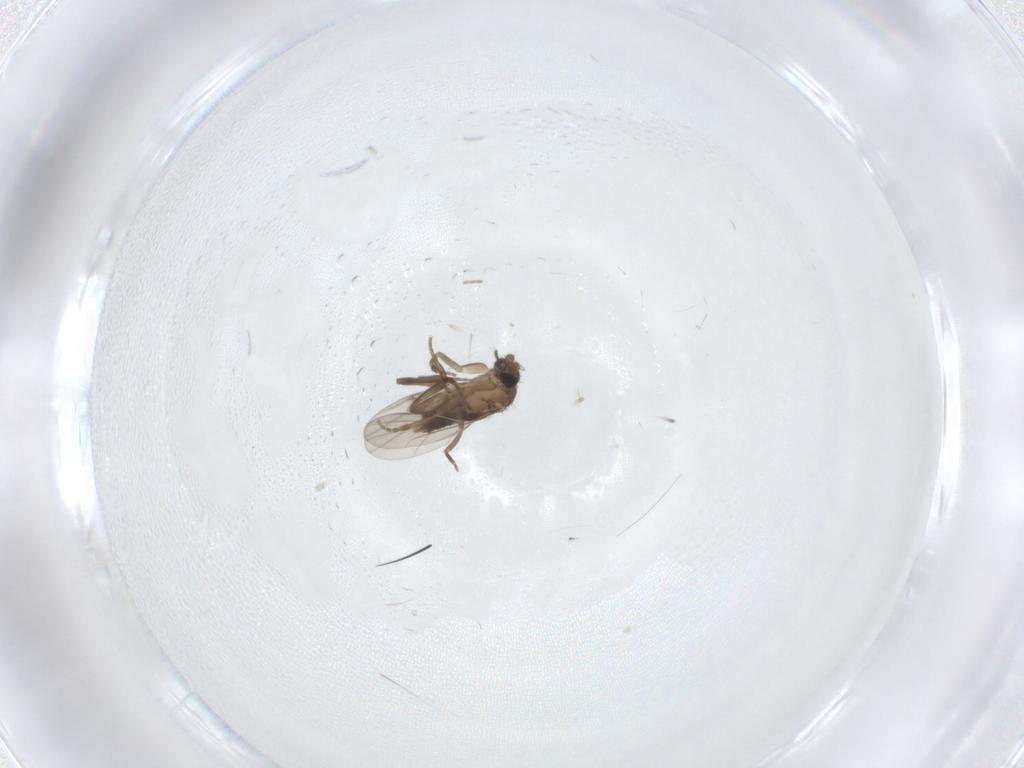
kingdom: Animalia
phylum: Arthropoda
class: Insecta
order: Diptera
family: Phoridae
